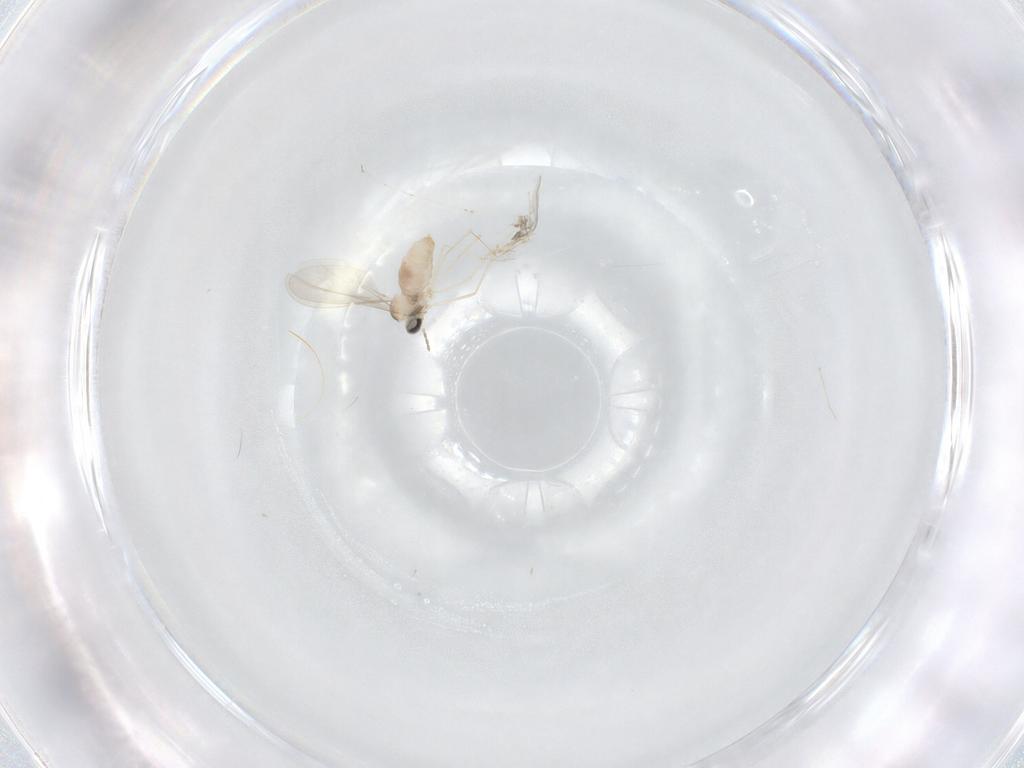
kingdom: Animalia
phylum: Arthropoda
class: Insecta
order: Diptera
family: Cecidomyiidae
